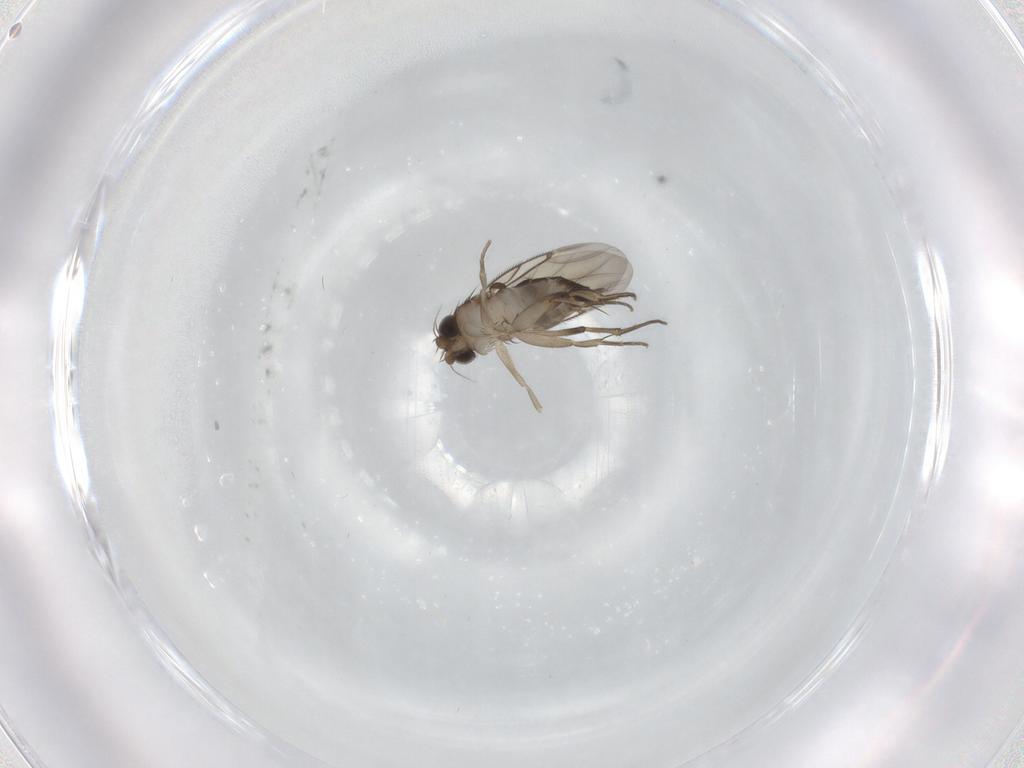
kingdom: Animalia
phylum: Arthropoda
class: Insecta
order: Diptera
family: Phoridae
